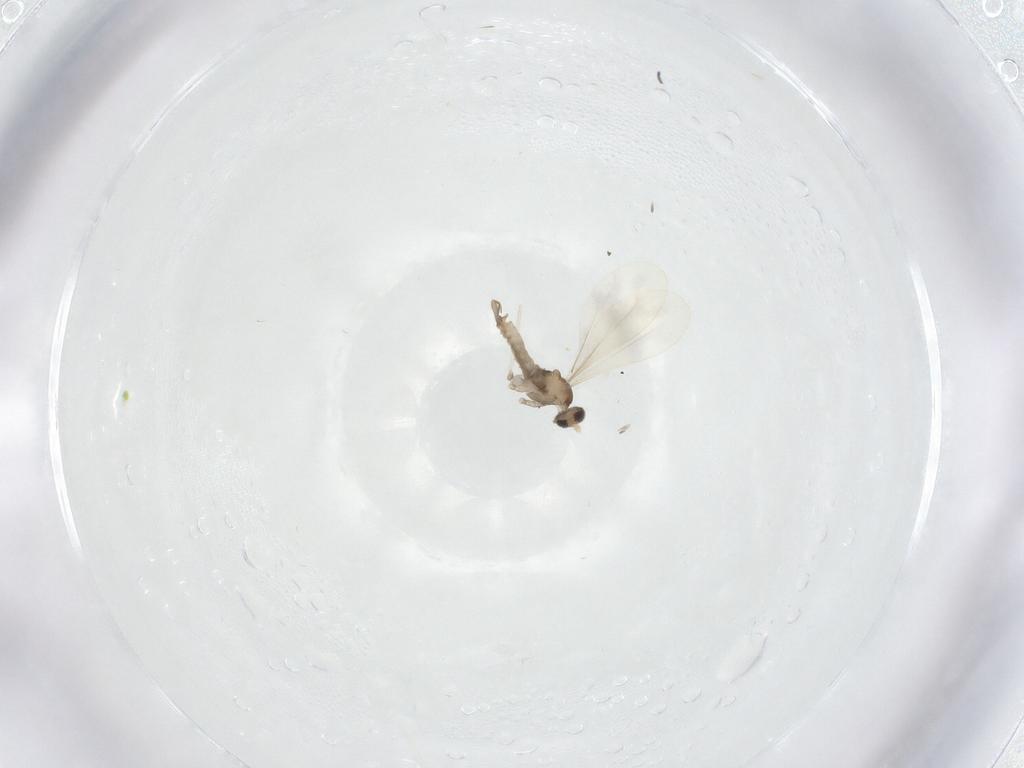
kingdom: Animalia
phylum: Arthropoda
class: Insecta
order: Diptera
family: Cecidomyiidae
